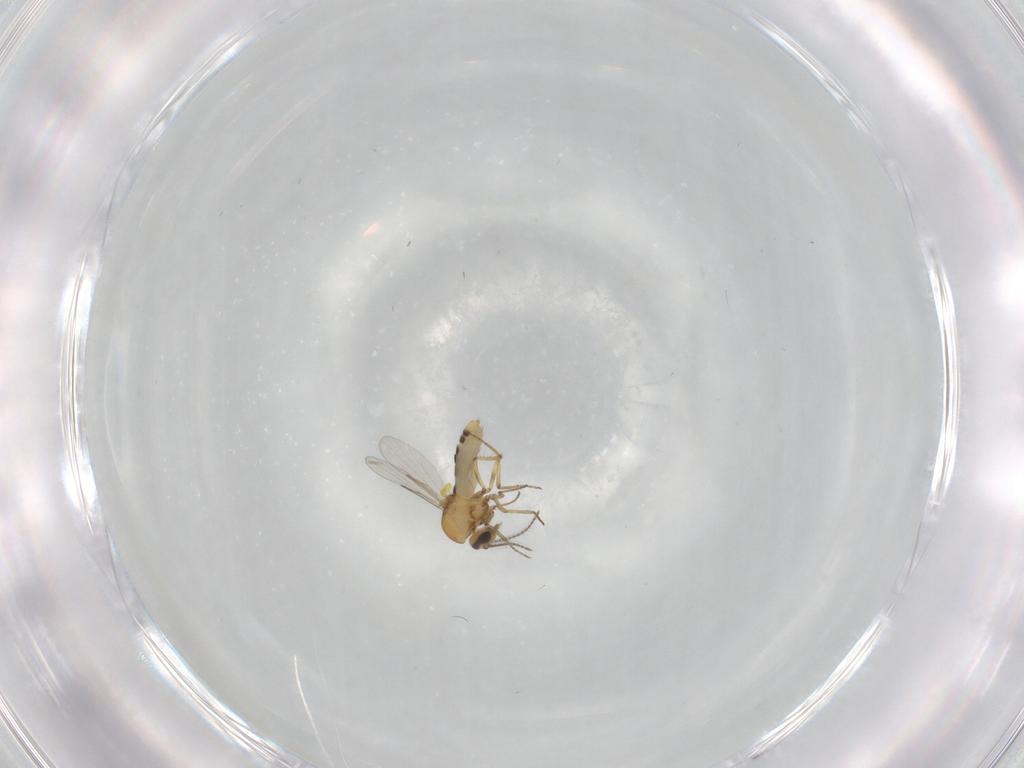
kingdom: Animalia
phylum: Arthropoda
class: Insecta
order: Diptera
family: Ceratopogonidae
